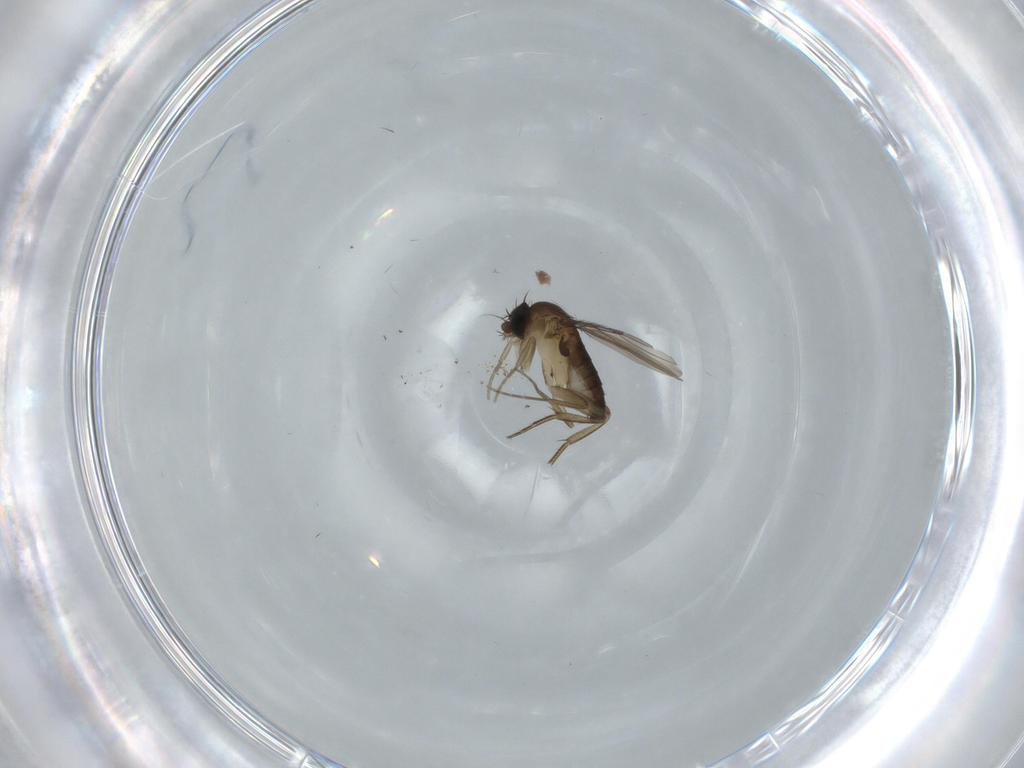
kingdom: Animalia
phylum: Arthropoda
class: Insecta
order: Diptera
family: Phoridae
